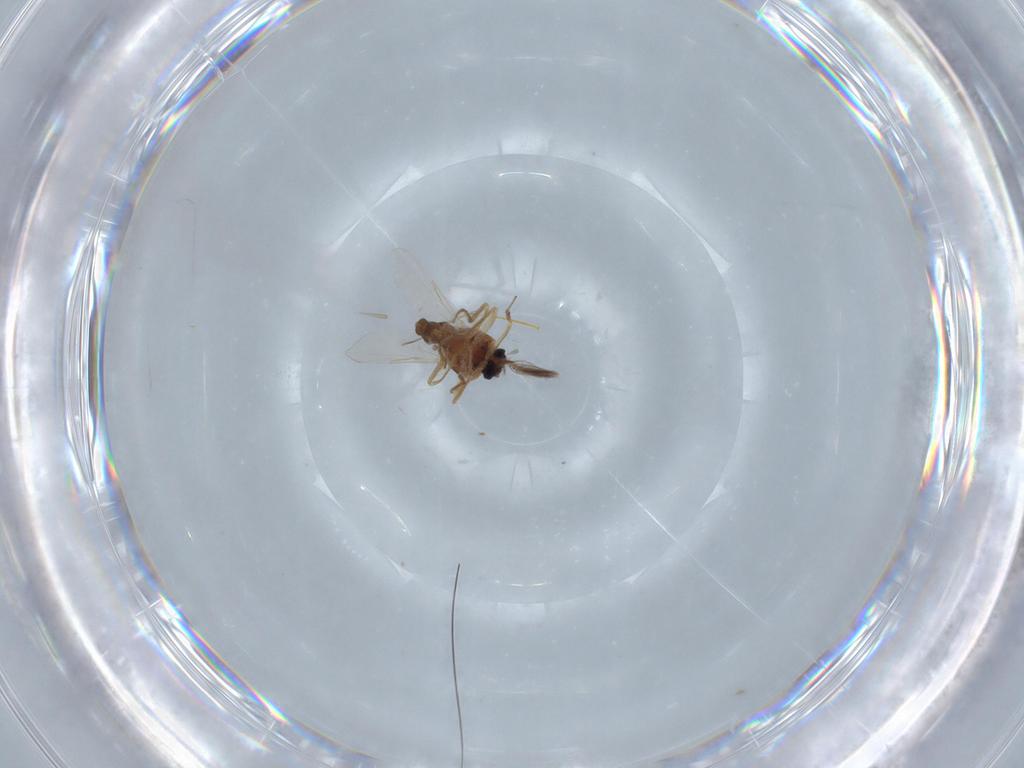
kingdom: Animalia
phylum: Arthropoda
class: Insecta
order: Diptera
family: Ceratopogonidae
